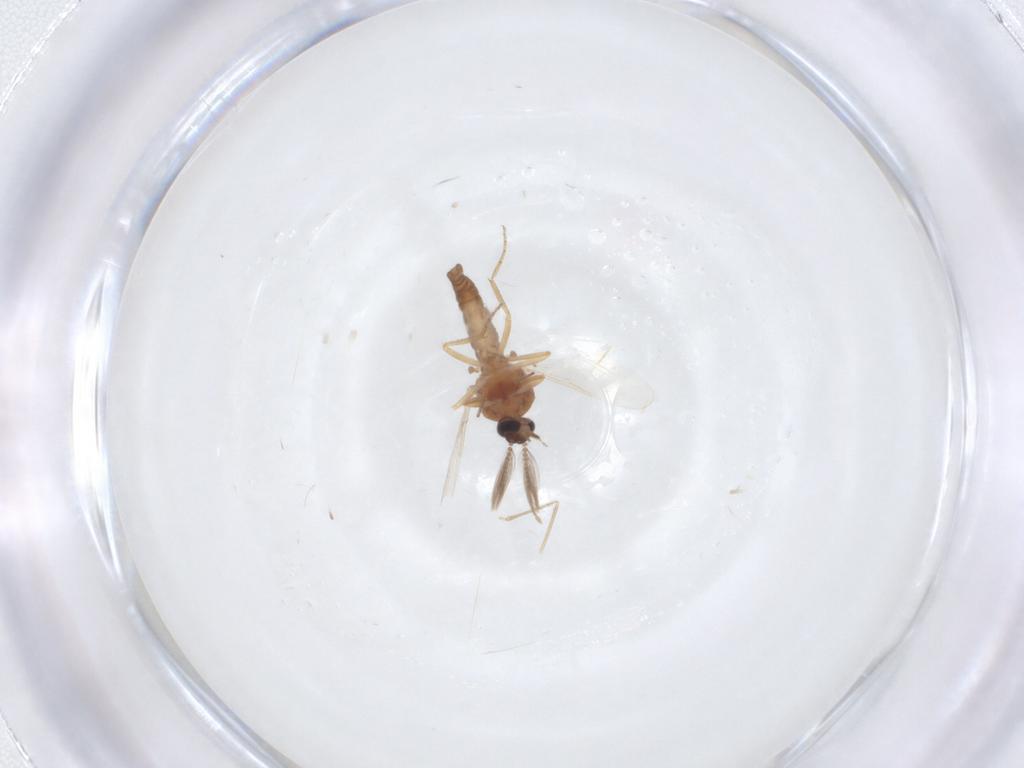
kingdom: Animalia
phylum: Arthropoda
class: Insecta
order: Diptera
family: Cecidomyiidae
